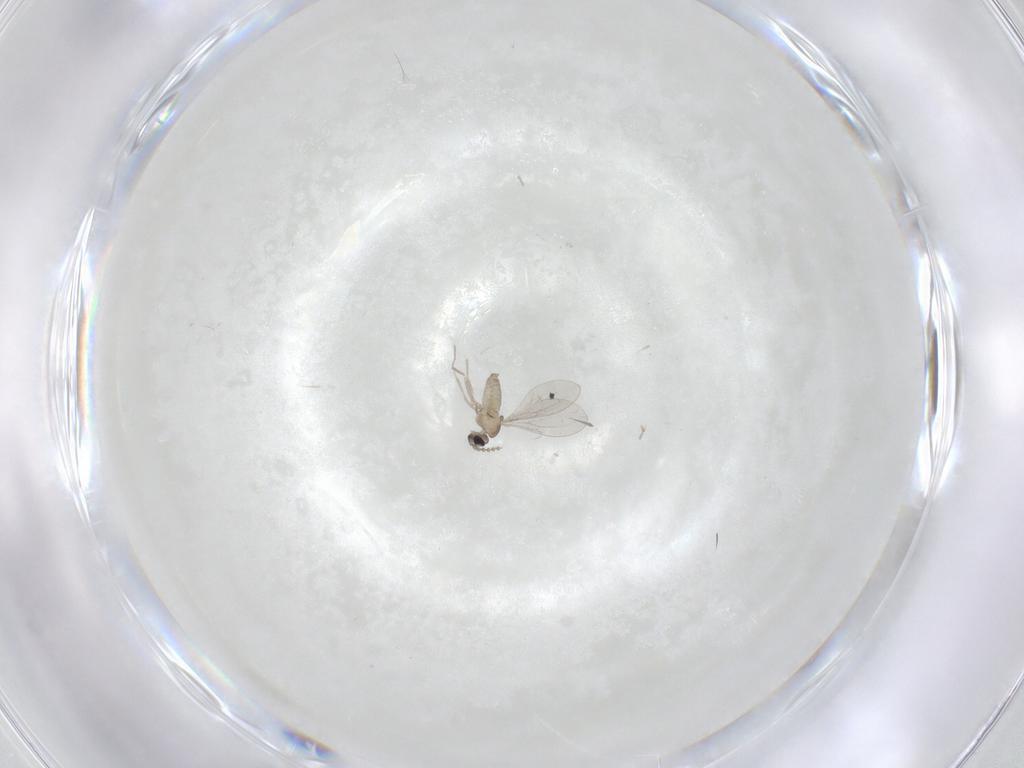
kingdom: Animalia
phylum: Arthropoda
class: Insecta
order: Diptera
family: Cecidomyiidae
